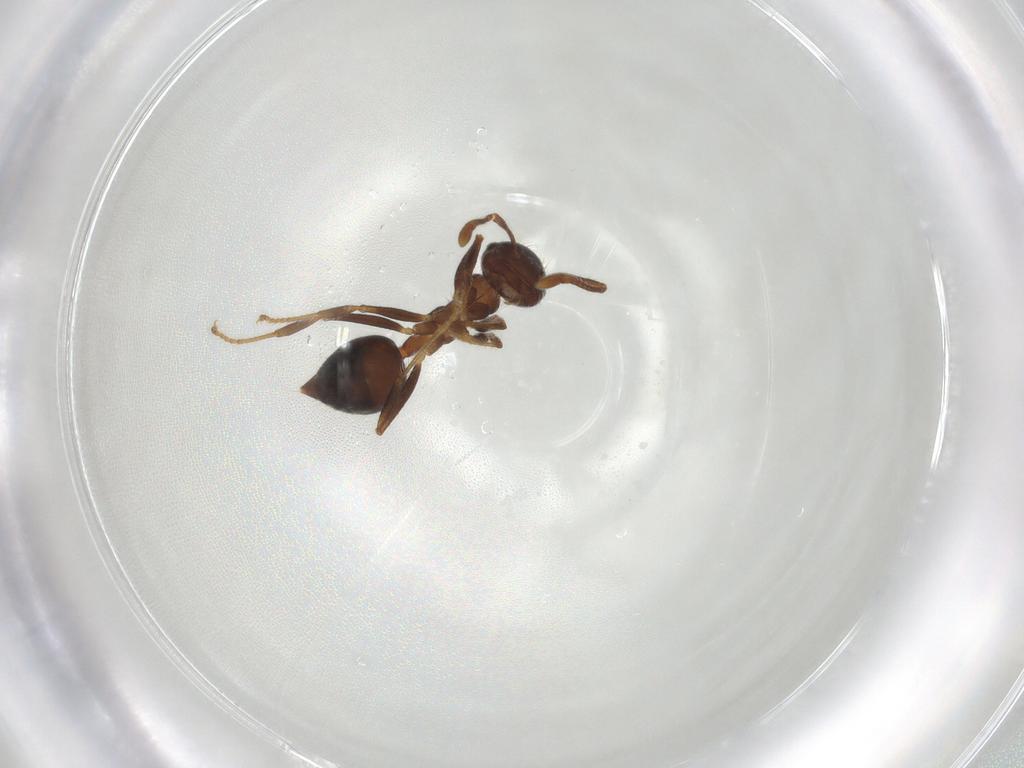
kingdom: Animalia
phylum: Arthropoda
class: Insecta
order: Hymenoptera
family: Formicidae
